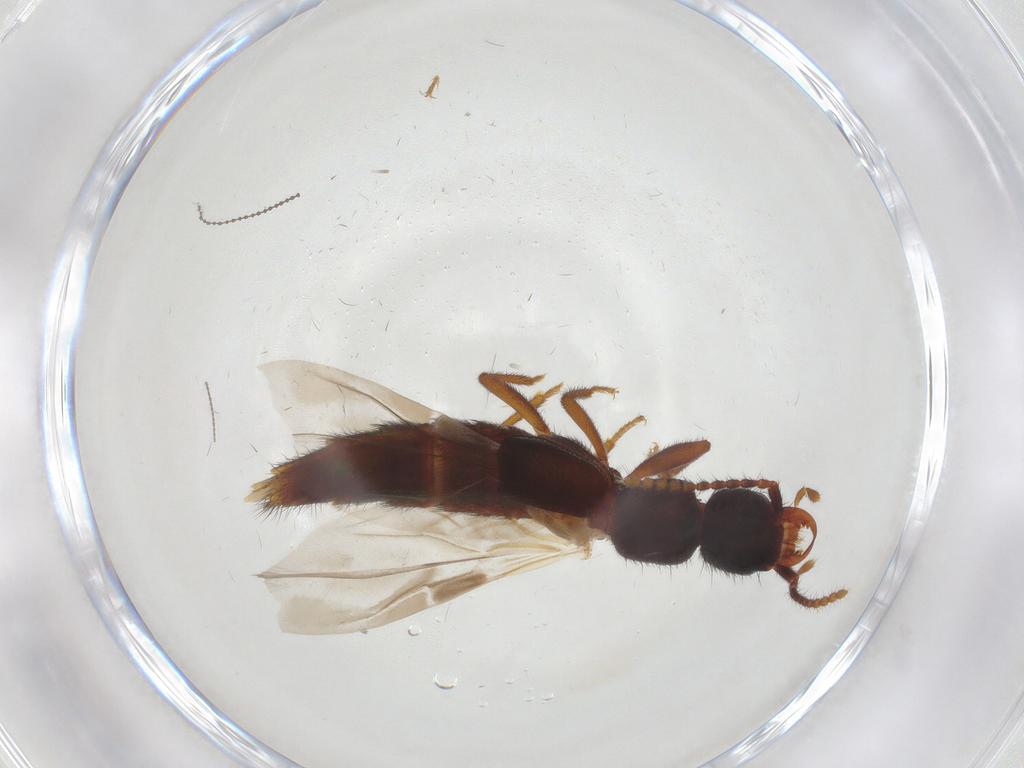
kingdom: Animalia
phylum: Arthropoda
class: Insecta
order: Coleoptera
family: Staphylinidae
